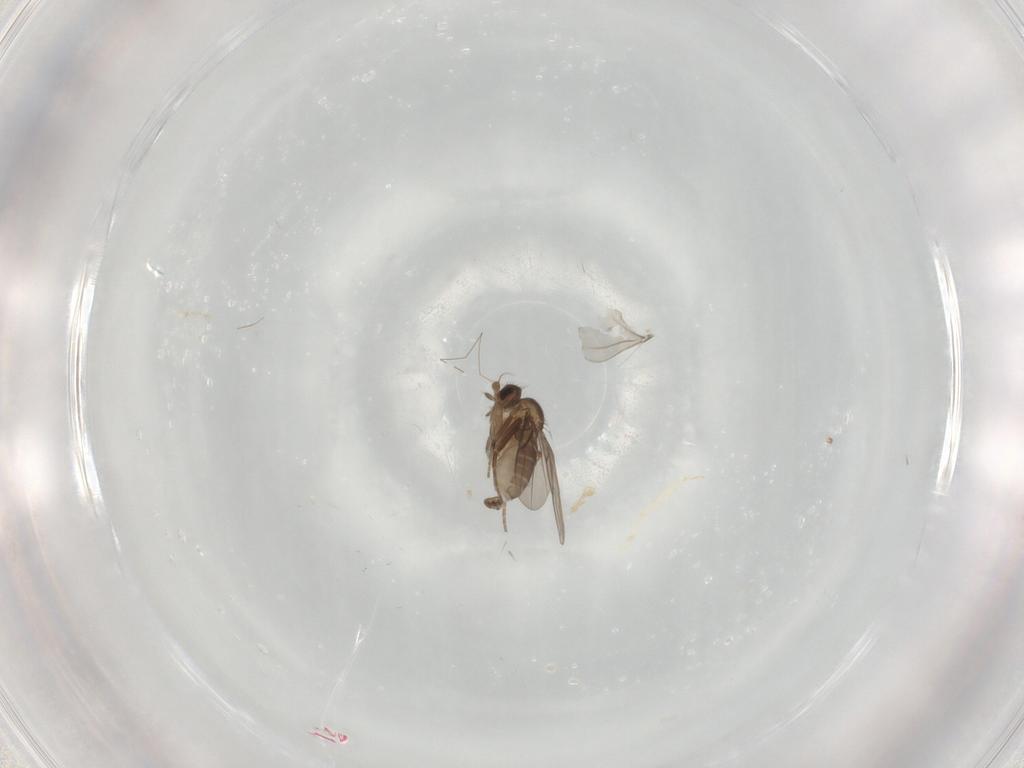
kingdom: Animalia
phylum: Arthropoda
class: Insecta
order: Diptera
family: Phoridae
